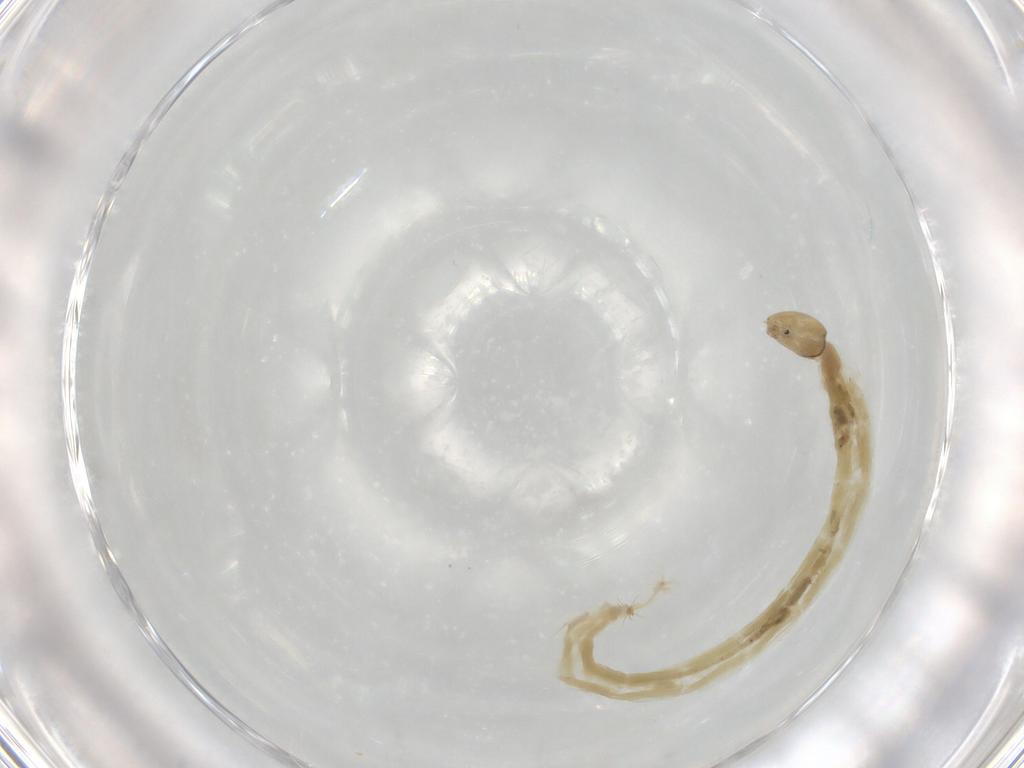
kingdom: Animalia
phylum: Arthropoda
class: Insecta
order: Diptera
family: Chironomidae
